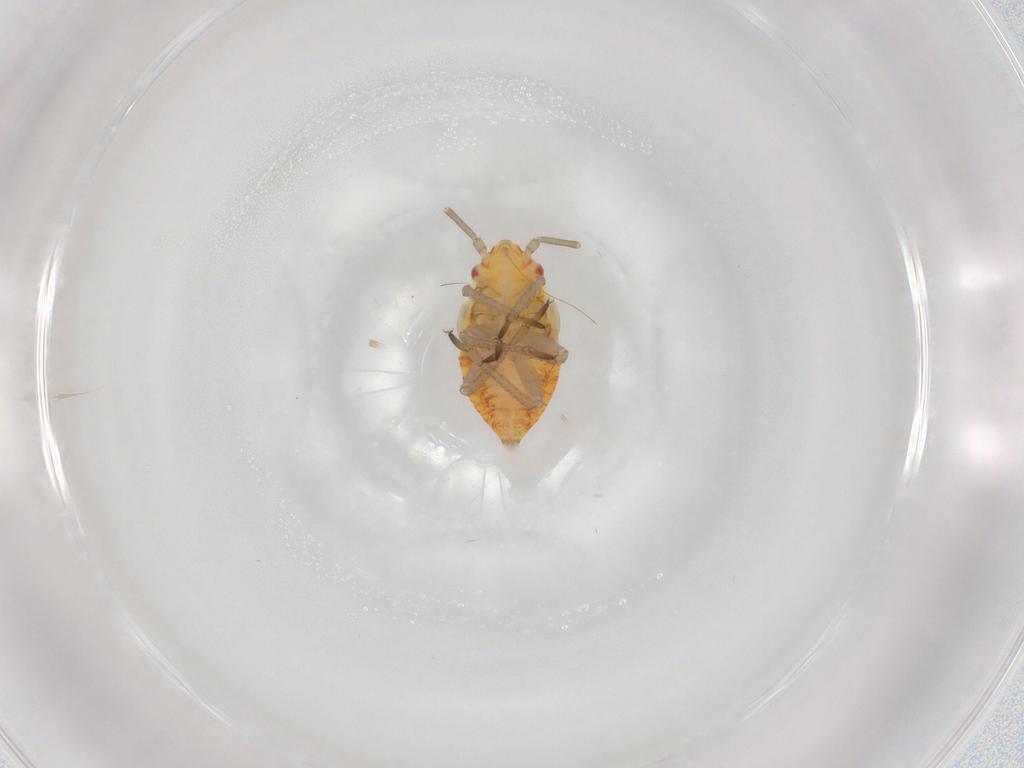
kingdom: Animalia
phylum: Arthropoda
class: Insecta
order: Hemiptera
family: Miridae
